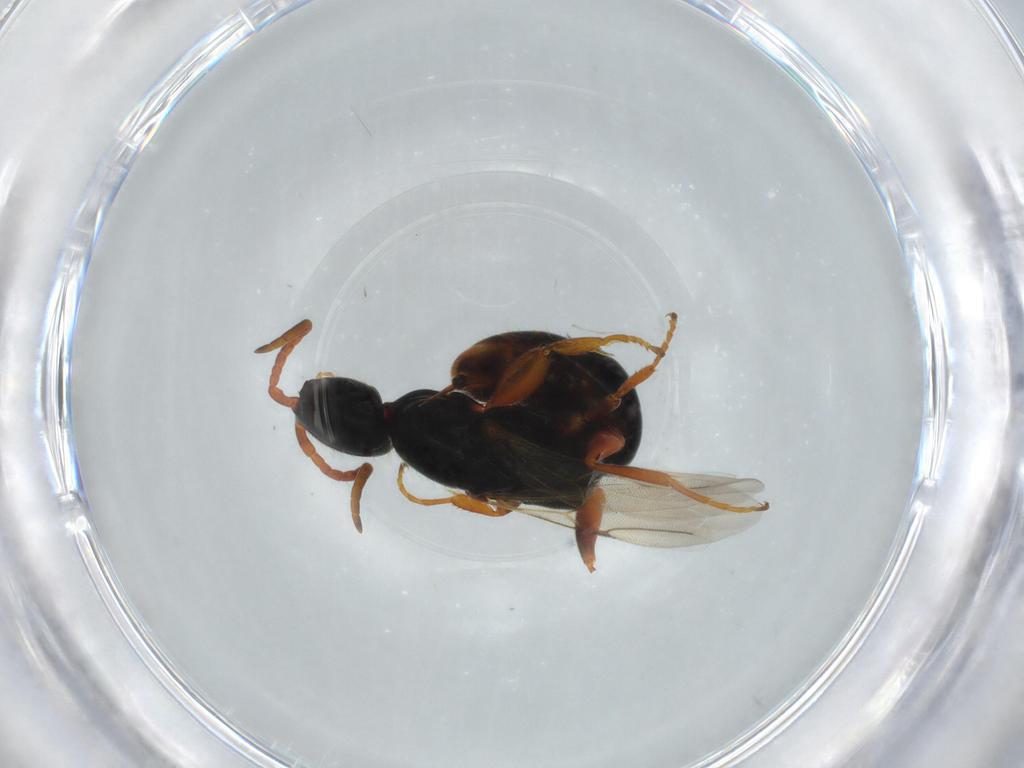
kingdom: Animalia
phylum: Arthropoda
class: Insecta
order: Hymenoptera
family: Bethylidae
